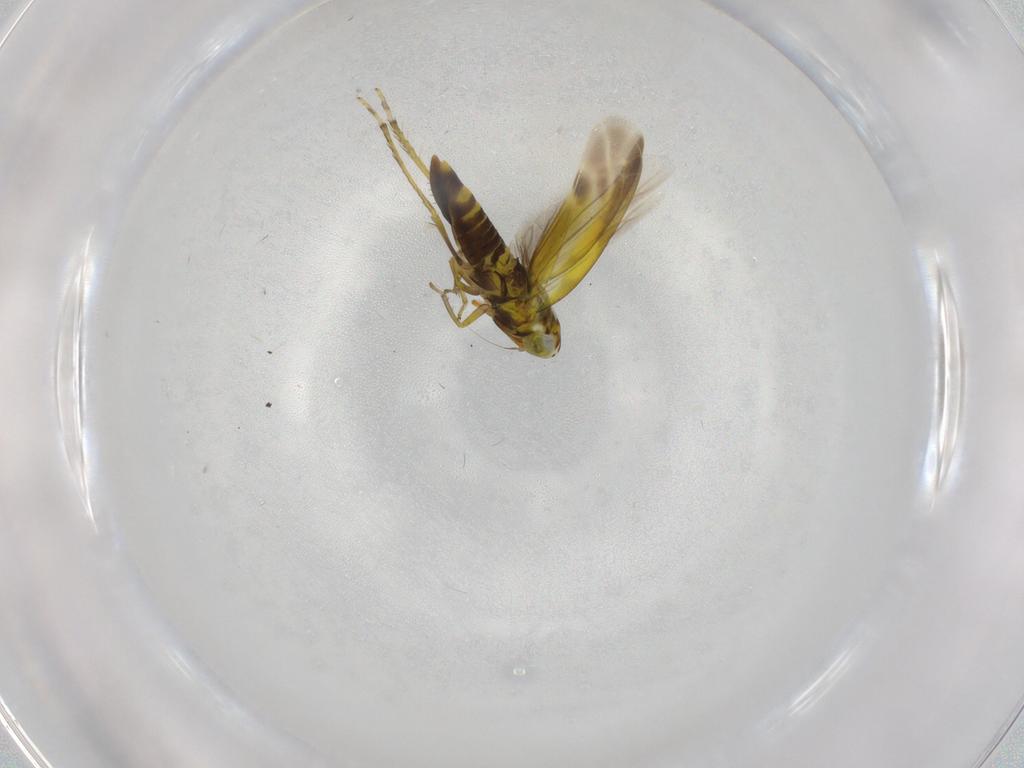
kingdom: Animalia
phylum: Arthropoda
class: Insecta
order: Hemiptera
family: Cicadellidae
